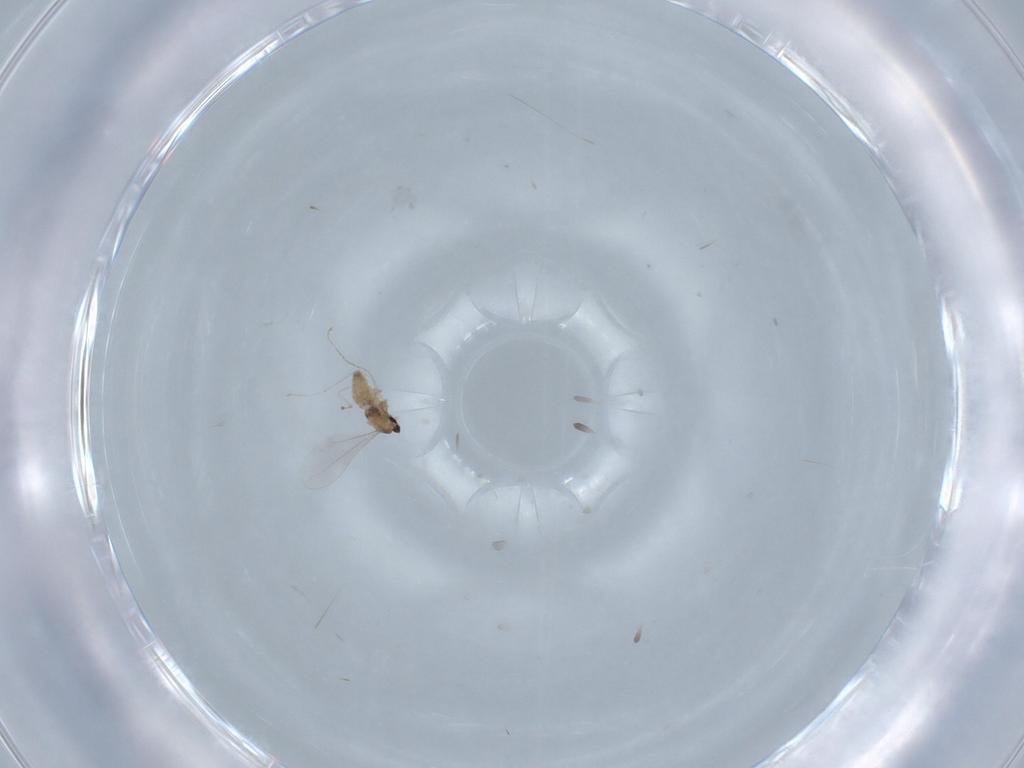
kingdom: Animalia
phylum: Arthropoda
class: Insecta
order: Diptera
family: Cecidomyiidae
